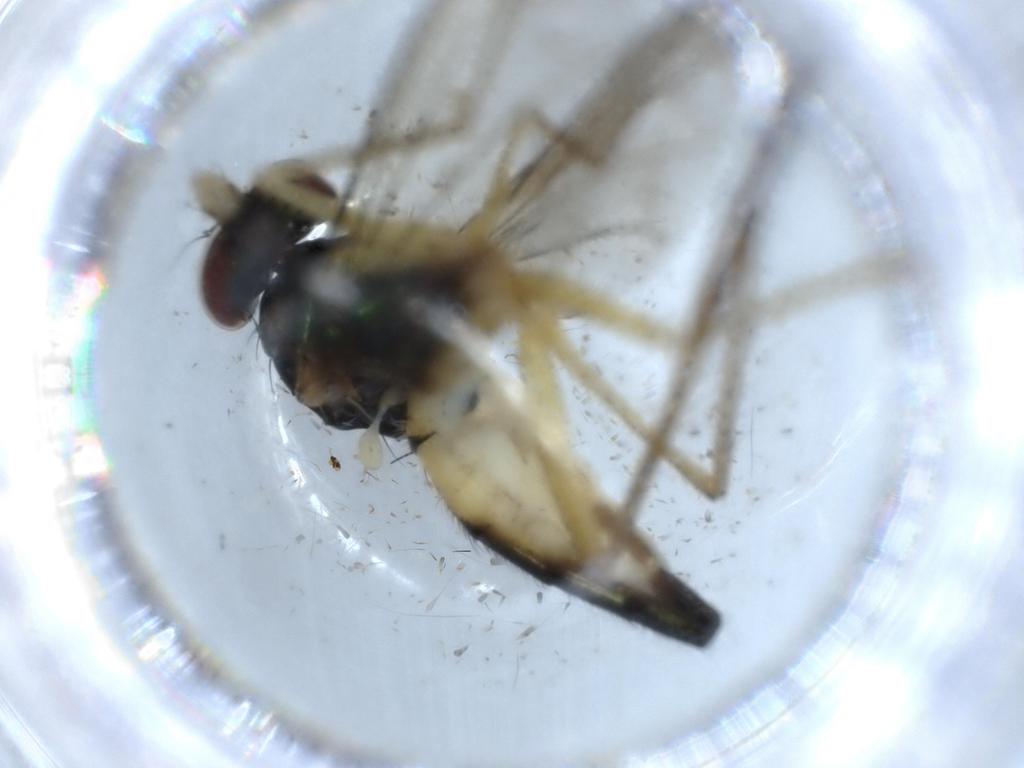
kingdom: Animalia
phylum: Arthropoda
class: Insecta
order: Diptera
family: Dolichopodidae
